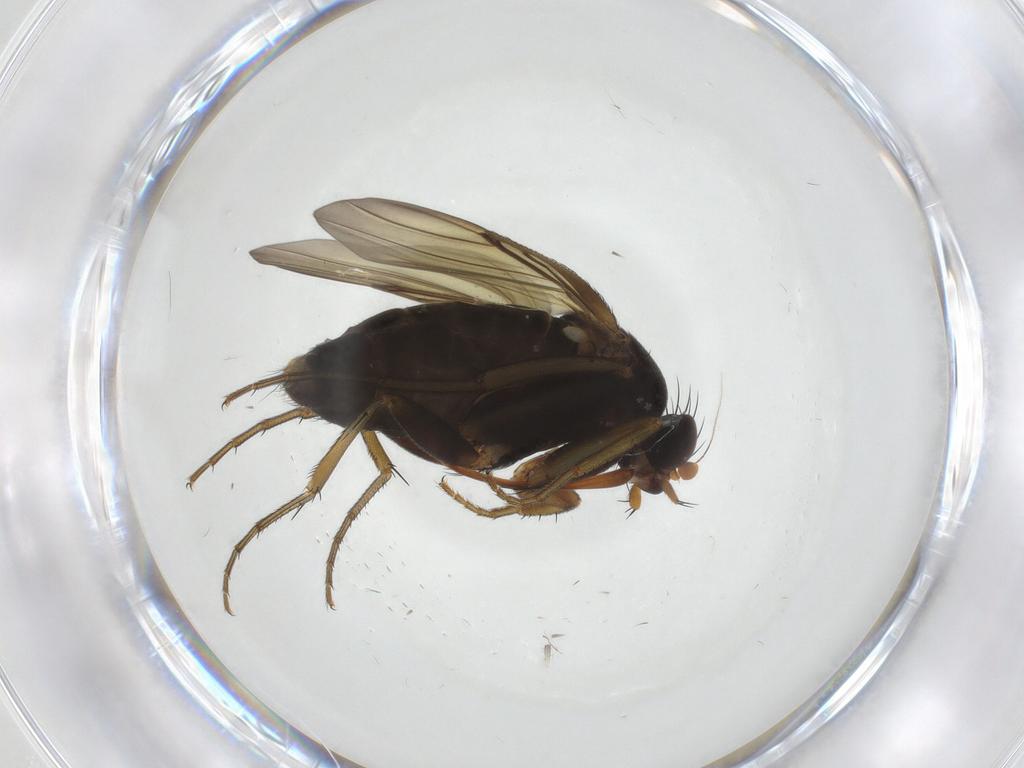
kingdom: Animalia
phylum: Arthropoda
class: Insecta
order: Diptera
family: Phoridae
